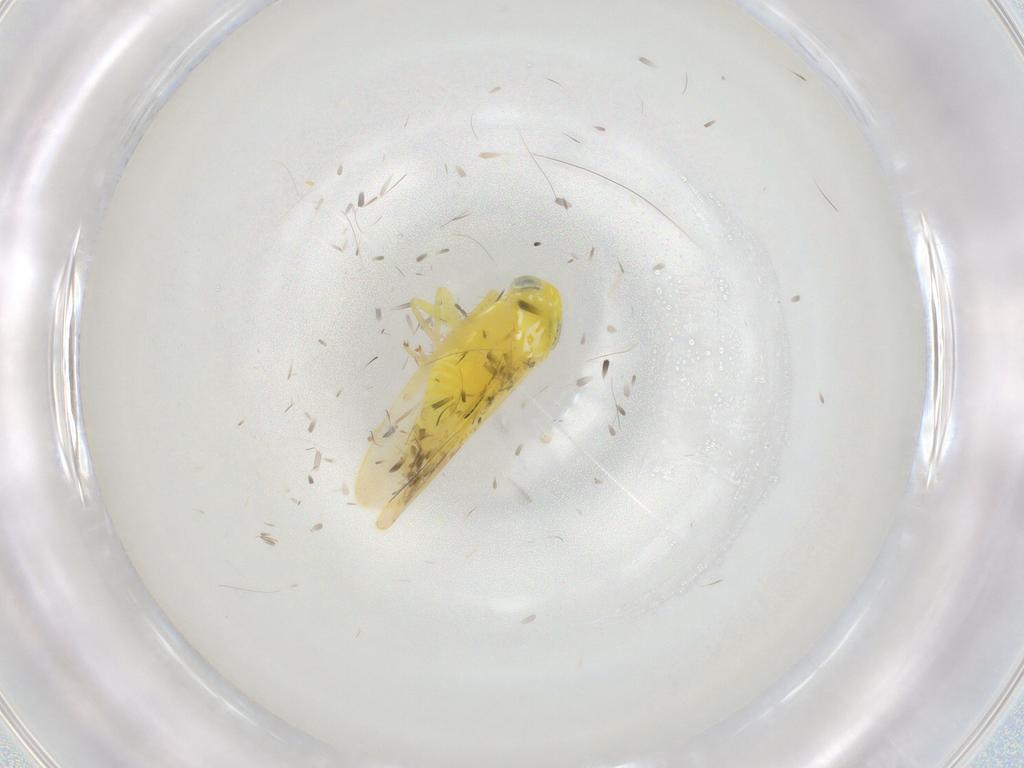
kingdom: Animalia
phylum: Arthropoda
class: Insecta
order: Hemiptera
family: Cicadellidae
